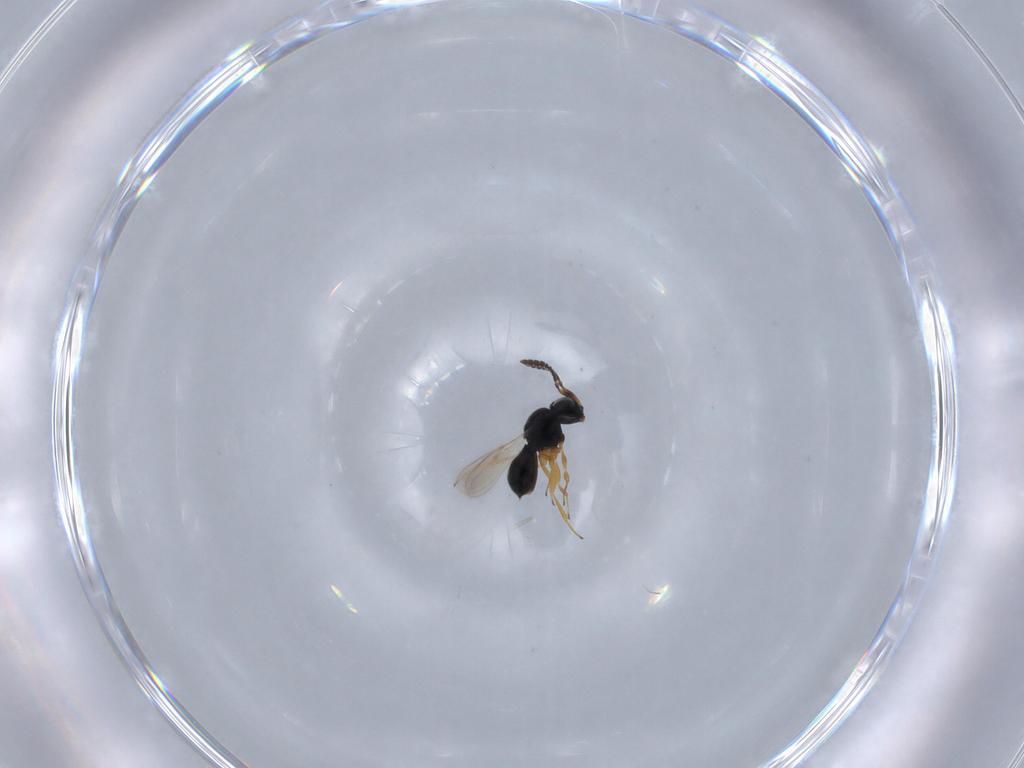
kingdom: Animalia
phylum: Arthropoda
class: Insecta
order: Hymenoptera
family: Scelionidae
